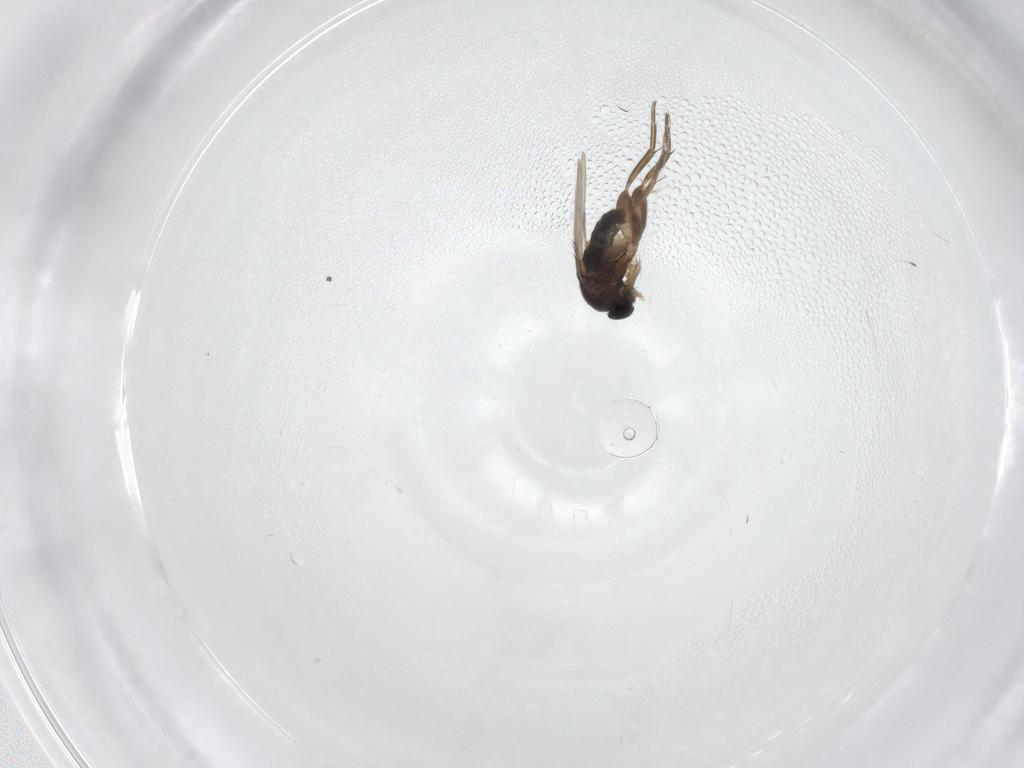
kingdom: Animalia
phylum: Arthropoda
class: Insecta
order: Diptera
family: Phoridae
